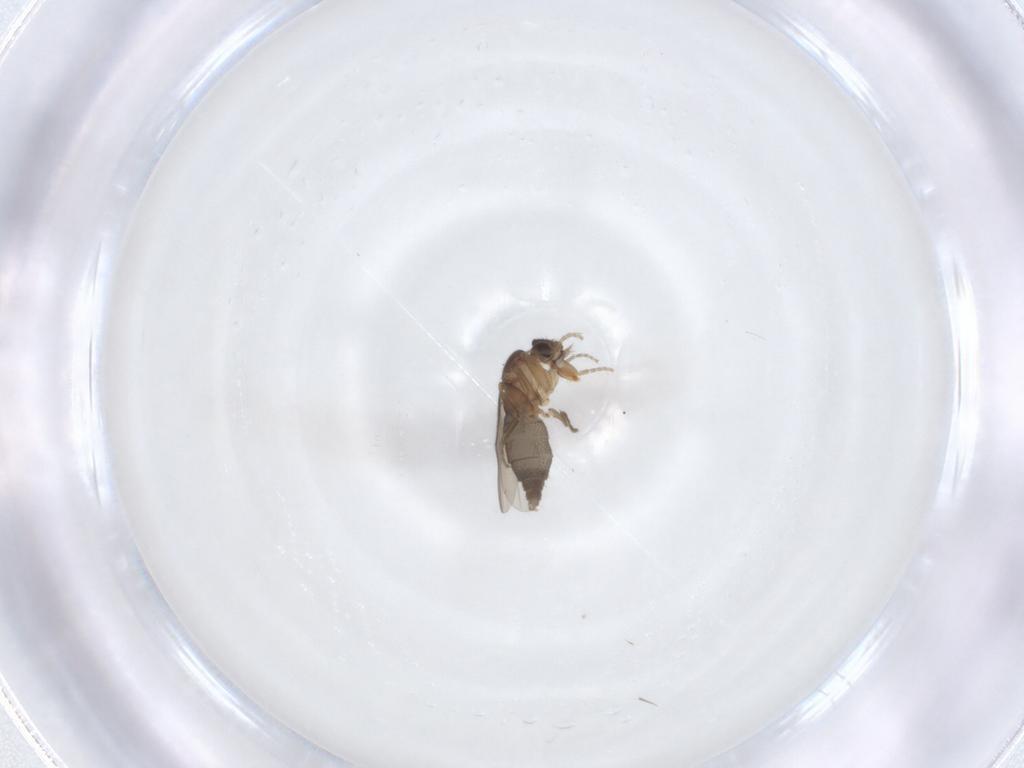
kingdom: Animalia
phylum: Arthropoda
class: Insecta
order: Diptera
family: Phoridae
